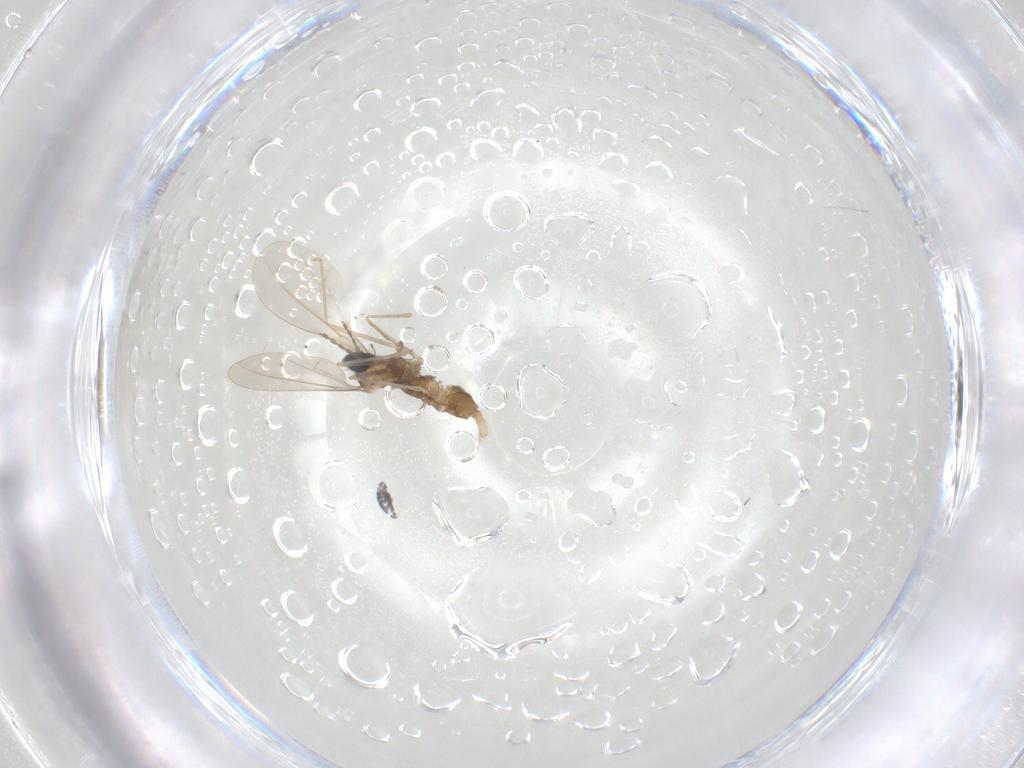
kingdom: Animalia
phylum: Arthropoda
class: Insecta
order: Diptera
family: Cecidomyiidae
